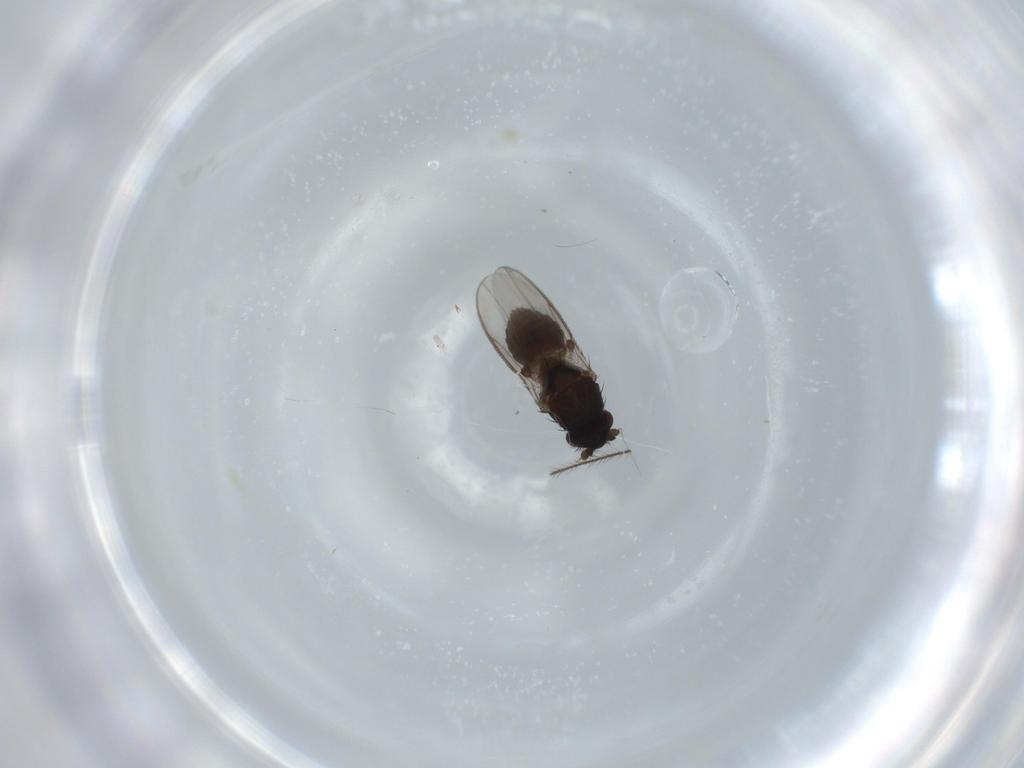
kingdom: Animalia
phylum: Arthropoda
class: Insecta
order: Diptera
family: Sphaeroceridae
